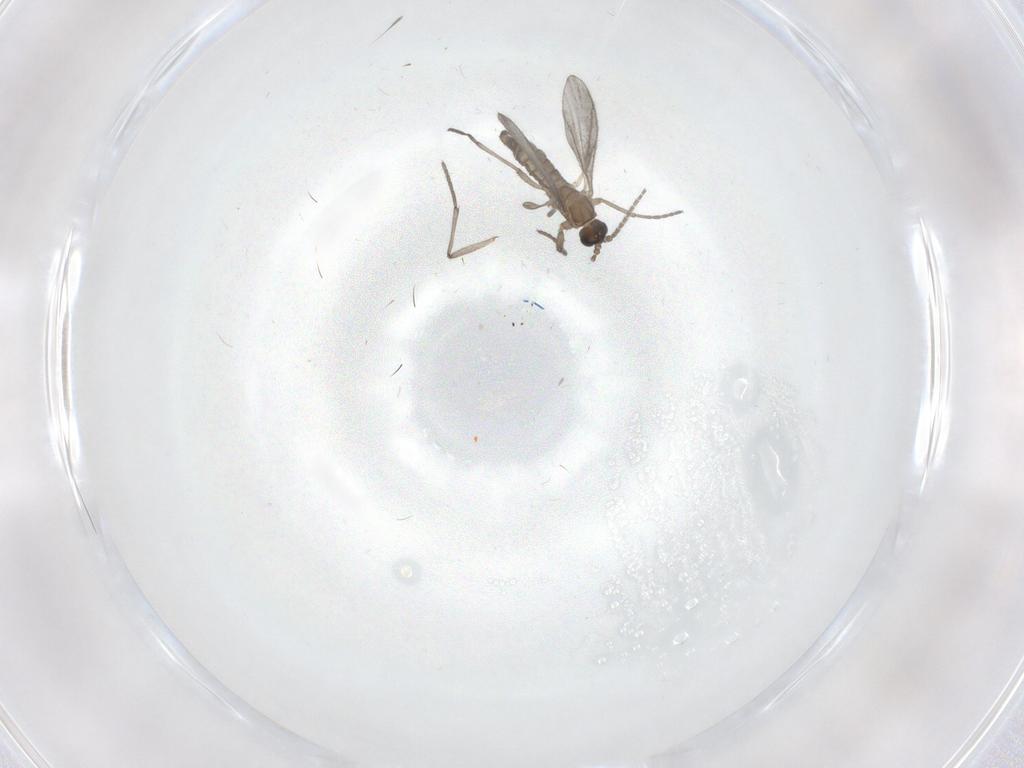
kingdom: Animalia
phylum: Arthropoda
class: Insecta
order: Diptera
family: Sciaridae
